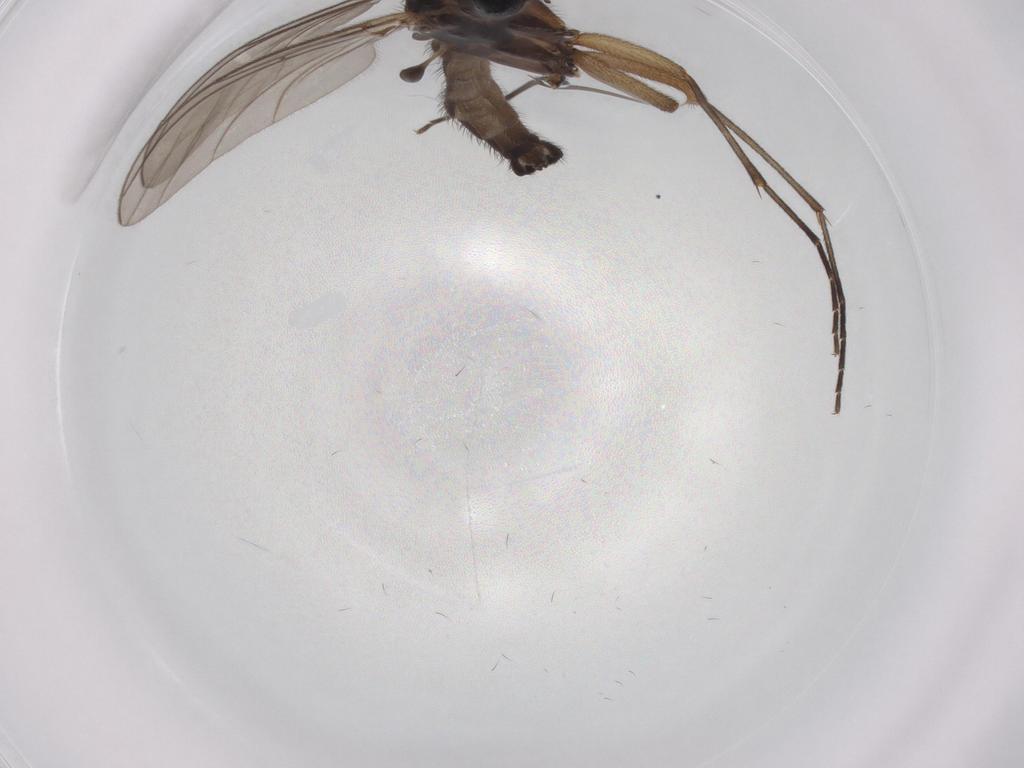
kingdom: Animalia
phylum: Arthropoda
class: Insecta
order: Diptera
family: Sciaridae
